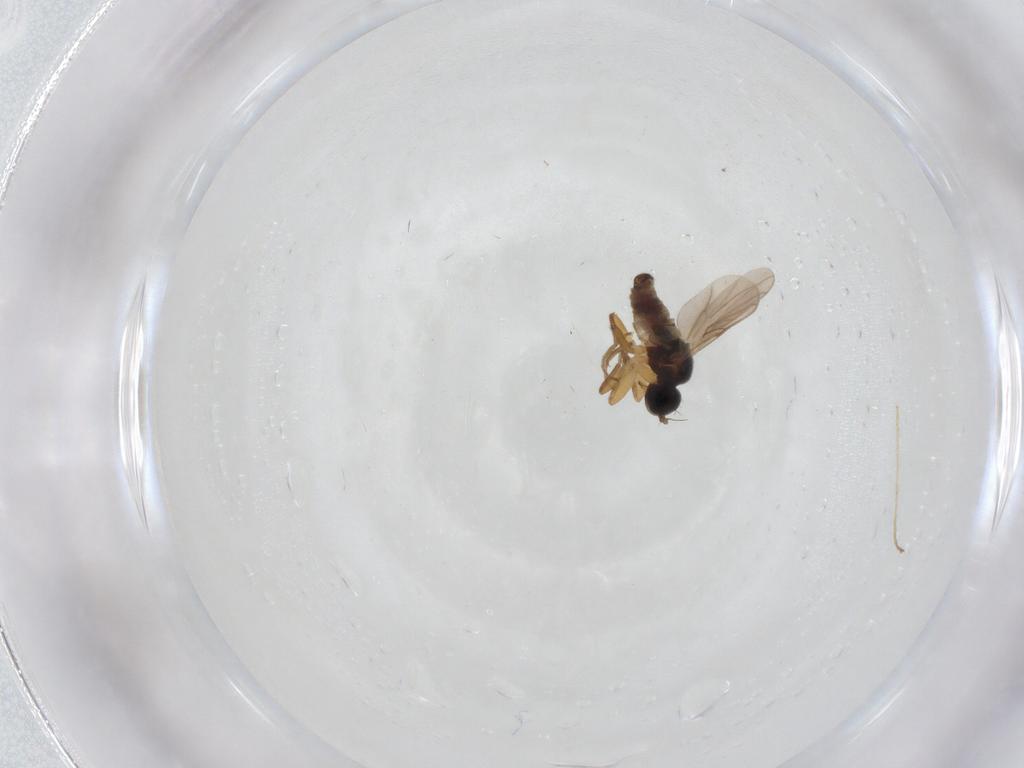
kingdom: Animalia
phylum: Arthropoda
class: Insecta
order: Diptera
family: Hybotidae
